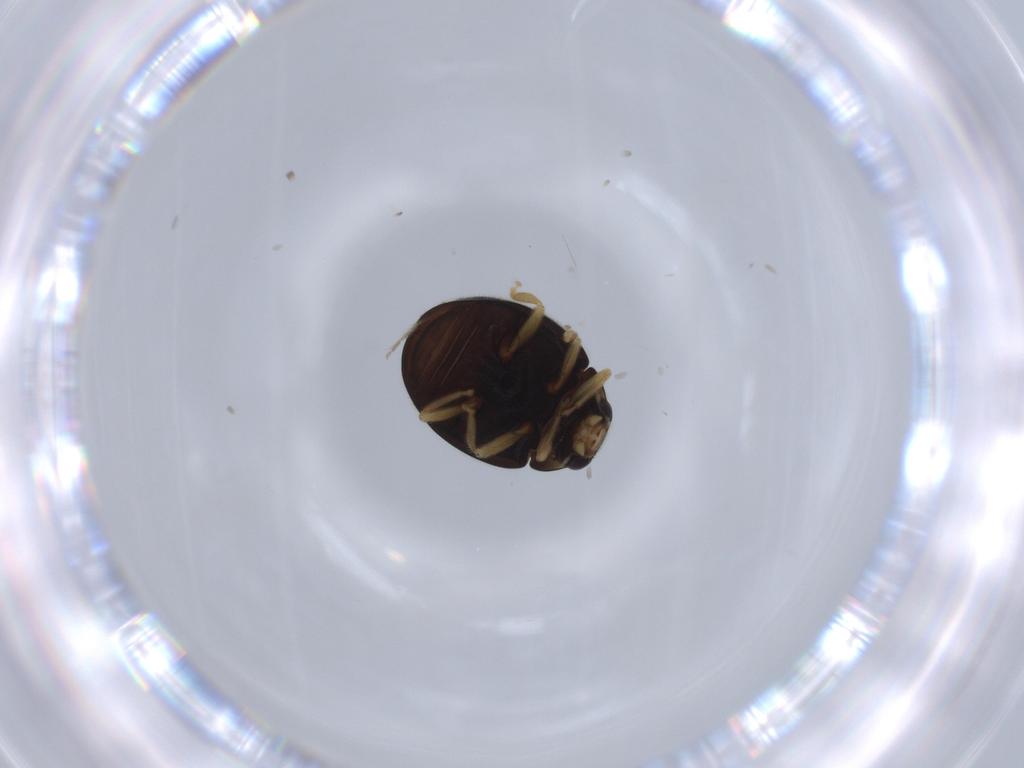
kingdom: Animalia
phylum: Arthropoda
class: Insecta
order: Coleoptera
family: Coccinellidae
